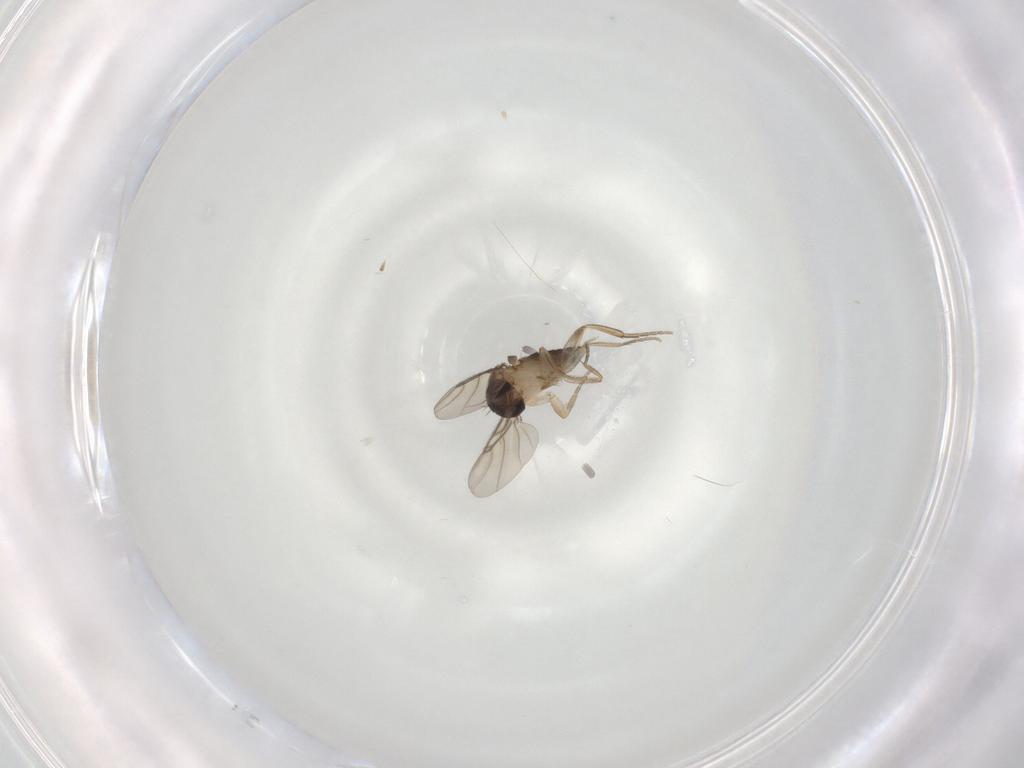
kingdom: Animalia
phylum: Arthropoda
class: Insecta
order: Diptera
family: Phoridae
